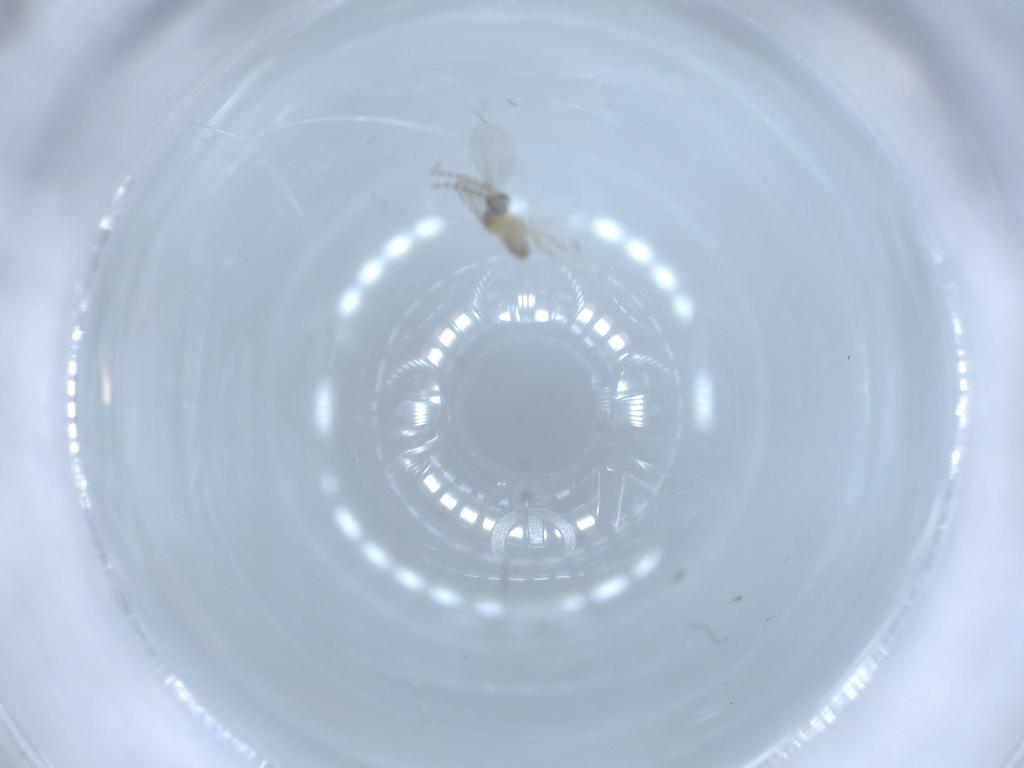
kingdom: Animalia
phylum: Arthropoda
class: Insecta
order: Diptera
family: Cecidomyiidae
